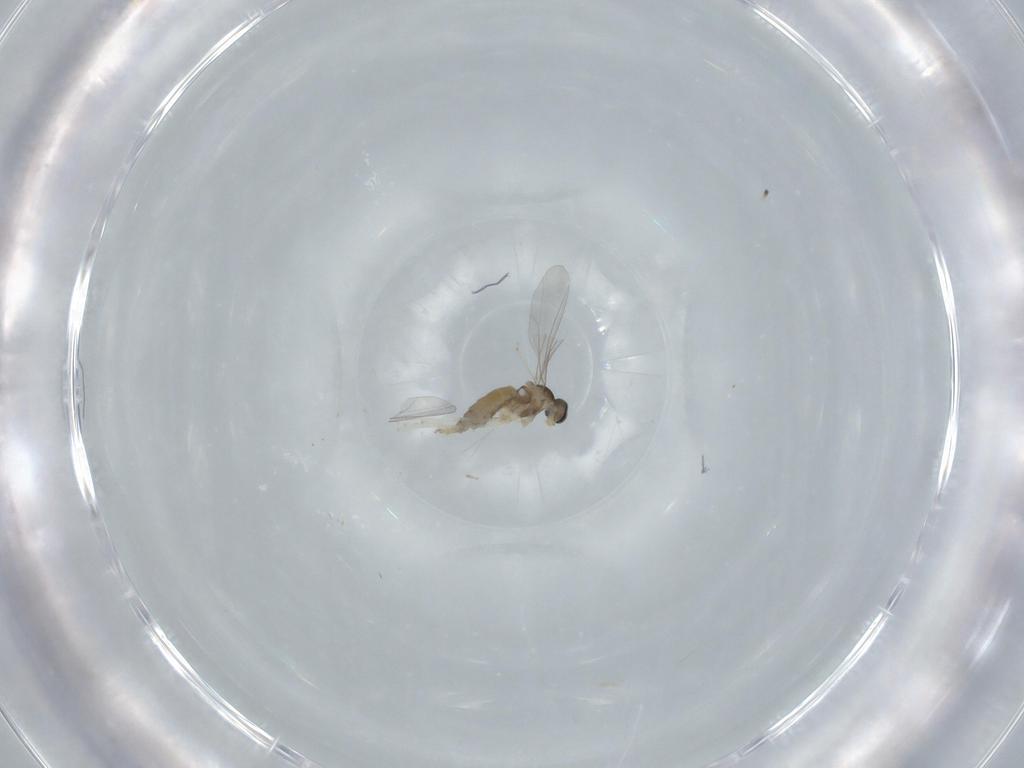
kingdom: Animalia
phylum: Arthropoda
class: Insecta
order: Diptera
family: Cecidomyiidae
